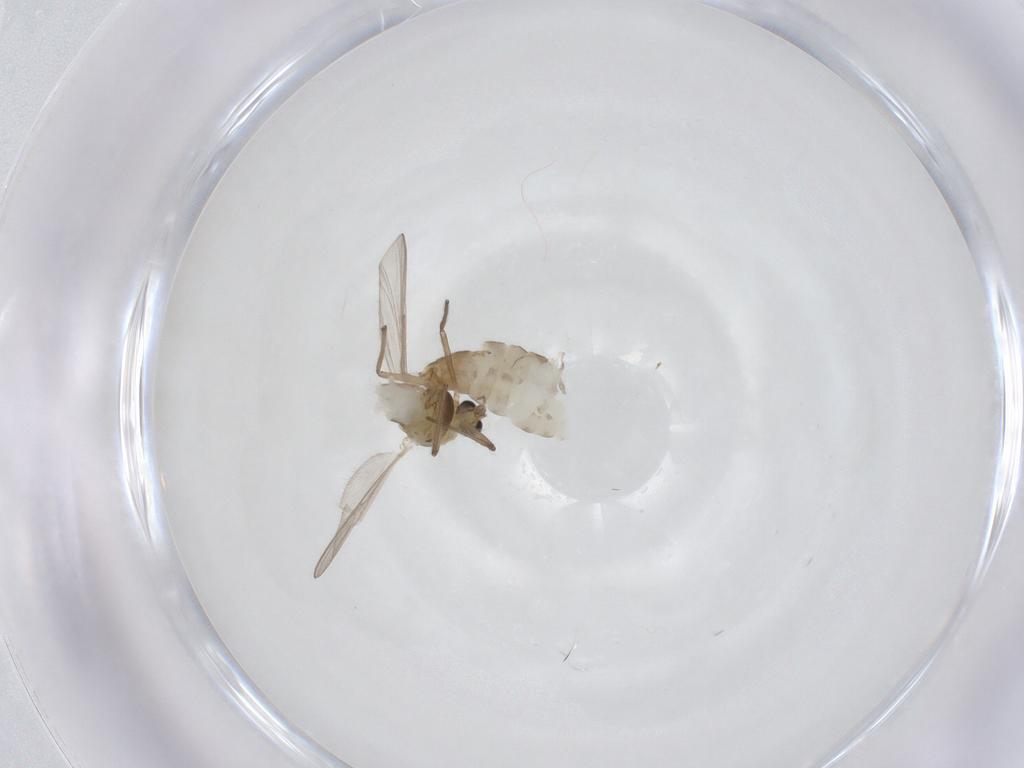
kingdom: Animalia
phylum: Arthropoda
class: Insecta
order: Diptera
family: Chironomidae
